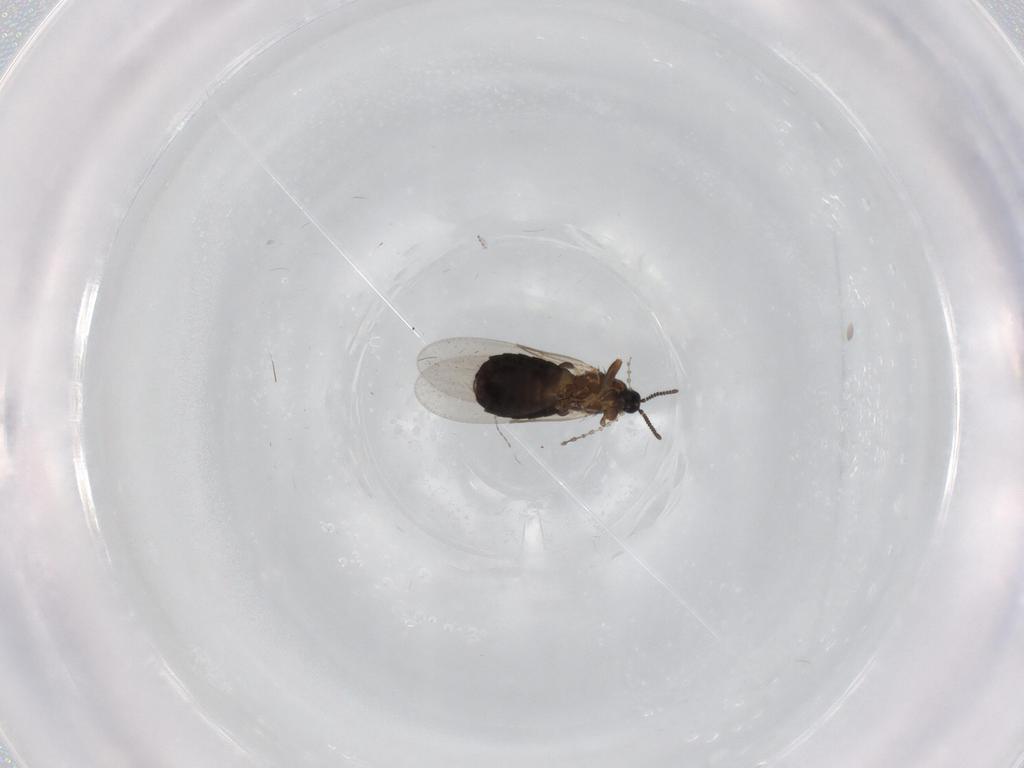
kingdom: Animalia
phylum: Arthropoda
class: Insecta
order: Diptera
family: Scatopsidae
